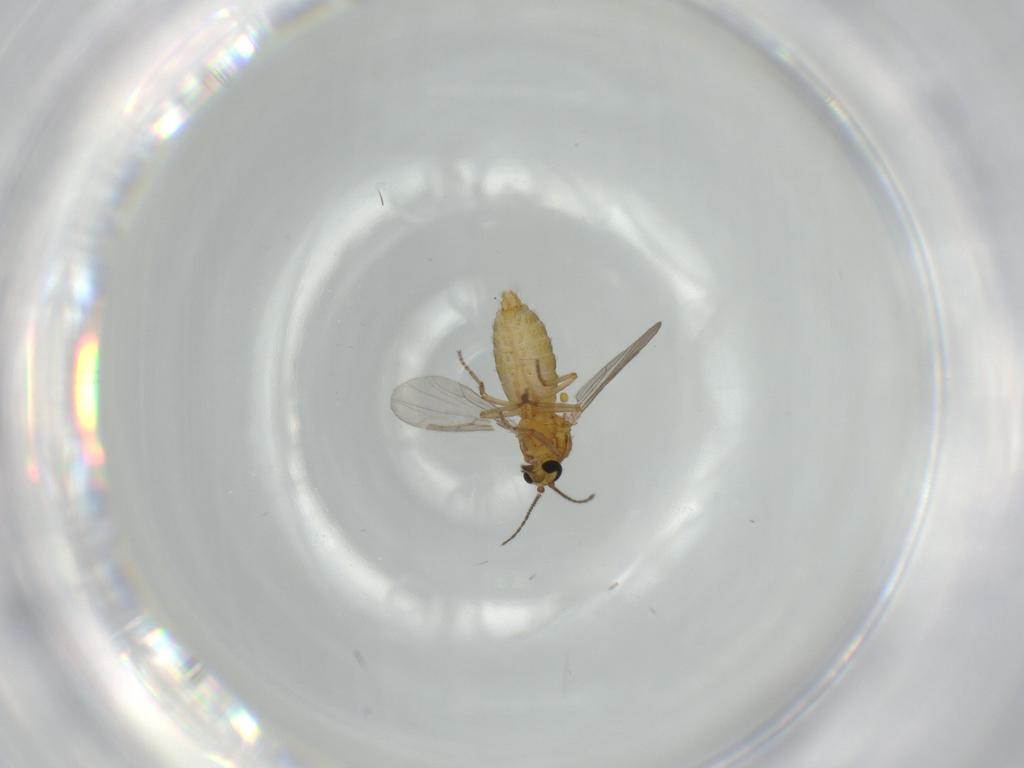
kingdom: Animalia
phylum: Arthropoda
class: Insecta
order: Diptera
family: Ceratopogonidae
